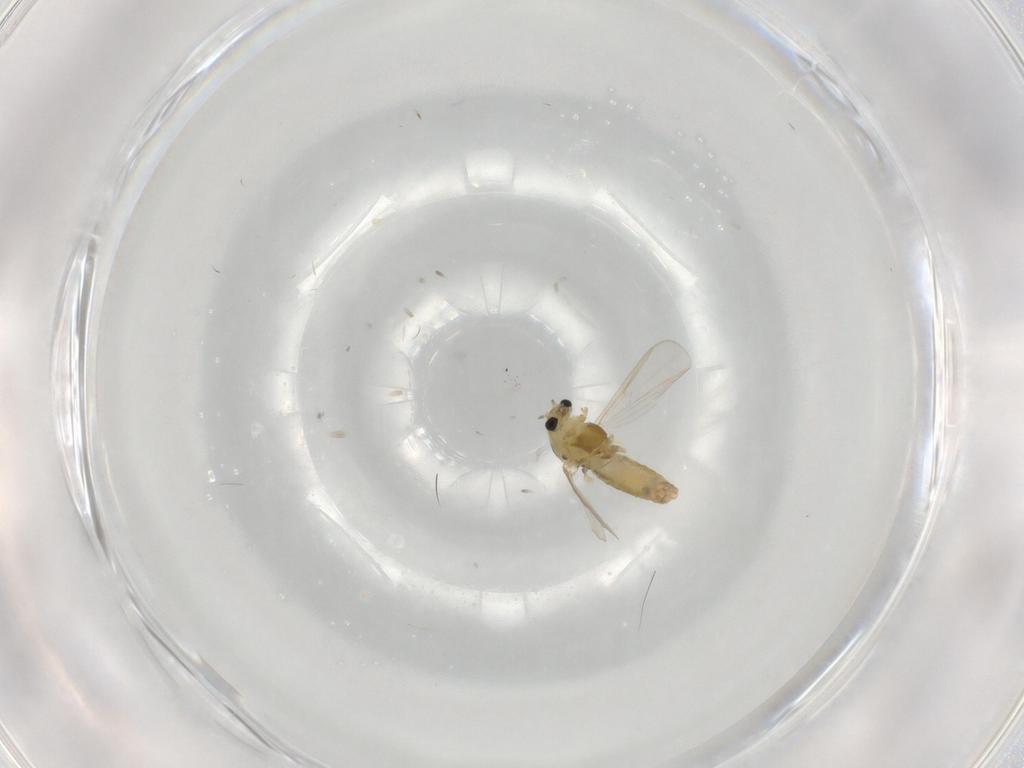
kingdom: Animalia
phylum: Arthropoda
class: Insecta
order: Diptera
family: Chironomidae
